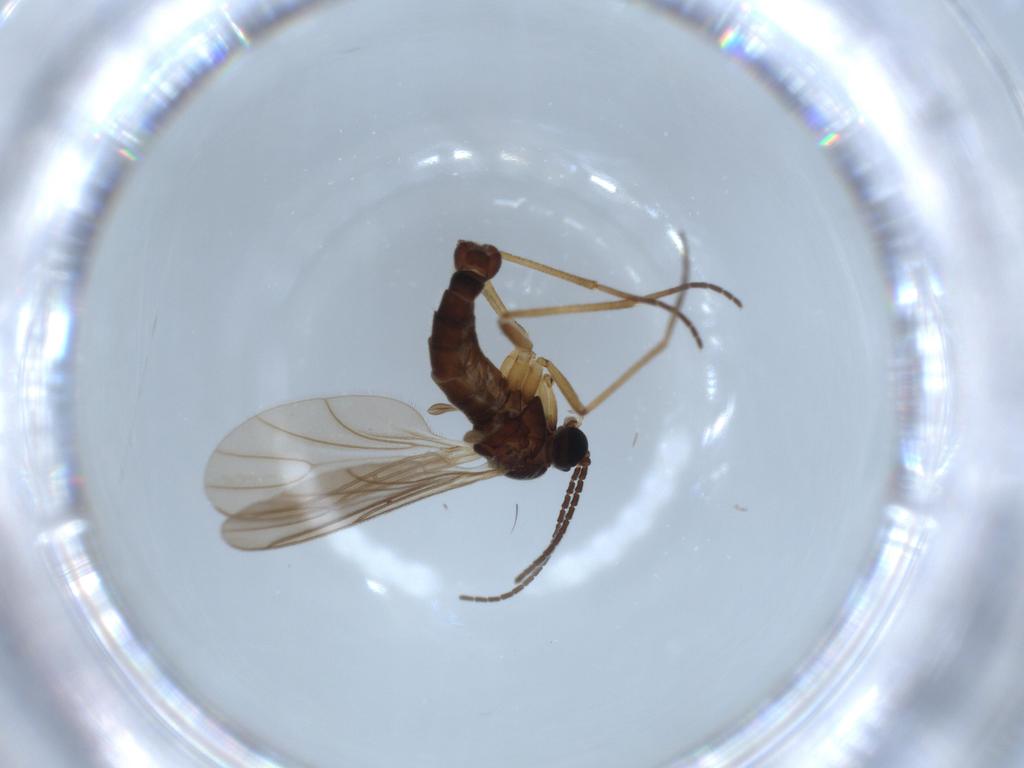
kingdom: Animalia
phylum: Arthropoda
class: Insecta
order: Diptera
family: Sciaridae
